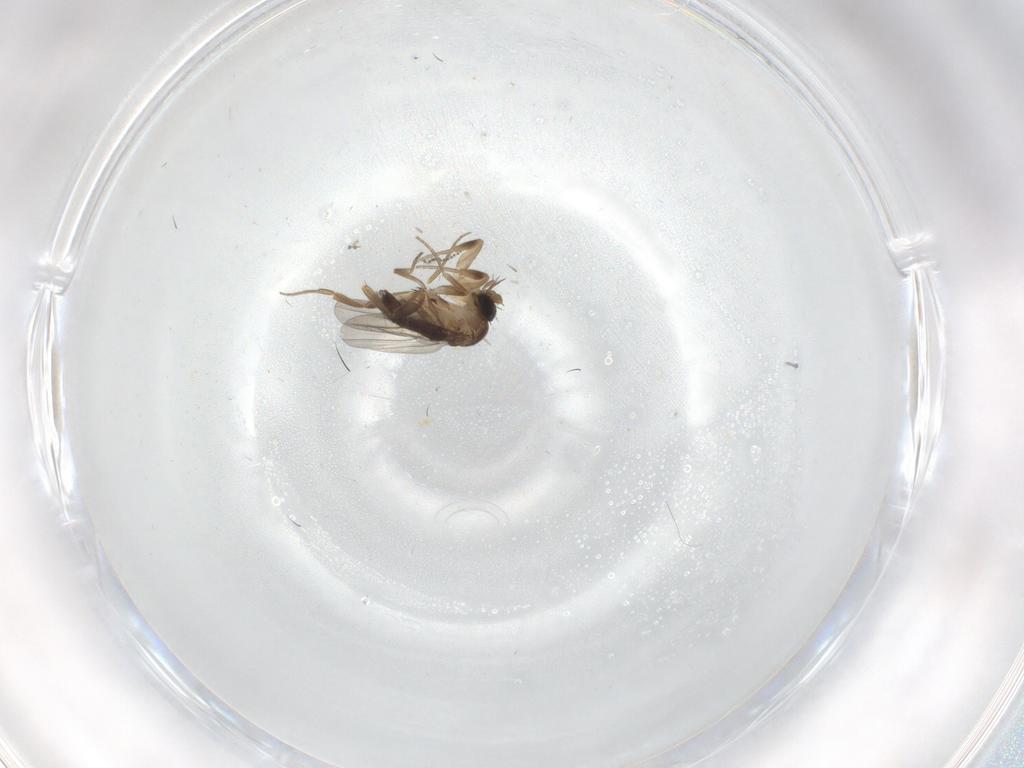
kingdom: Animalia
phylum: Arthropoda
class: Insecta
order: Diptera
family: Phoridae
